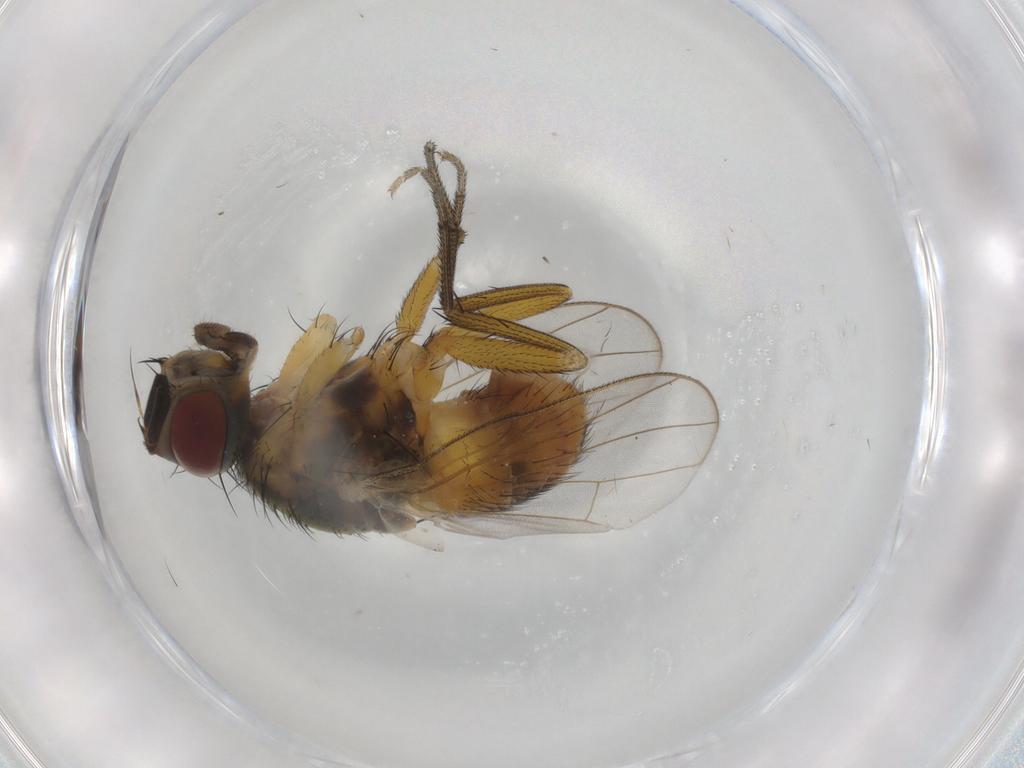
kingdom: Animalia
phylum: Arthropoda
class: Insecta
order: Diptera
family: Muscidae
